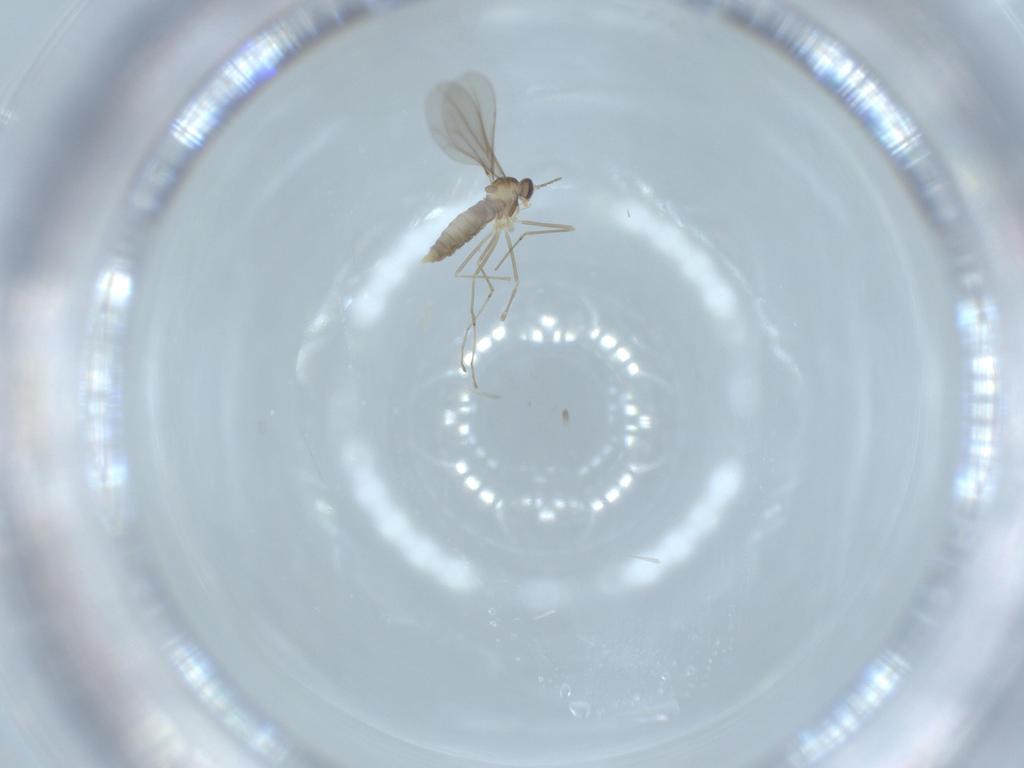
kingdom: Animalia
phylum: Arthropoda
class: Insecta
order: Diptera
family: Cecidomyiidae
